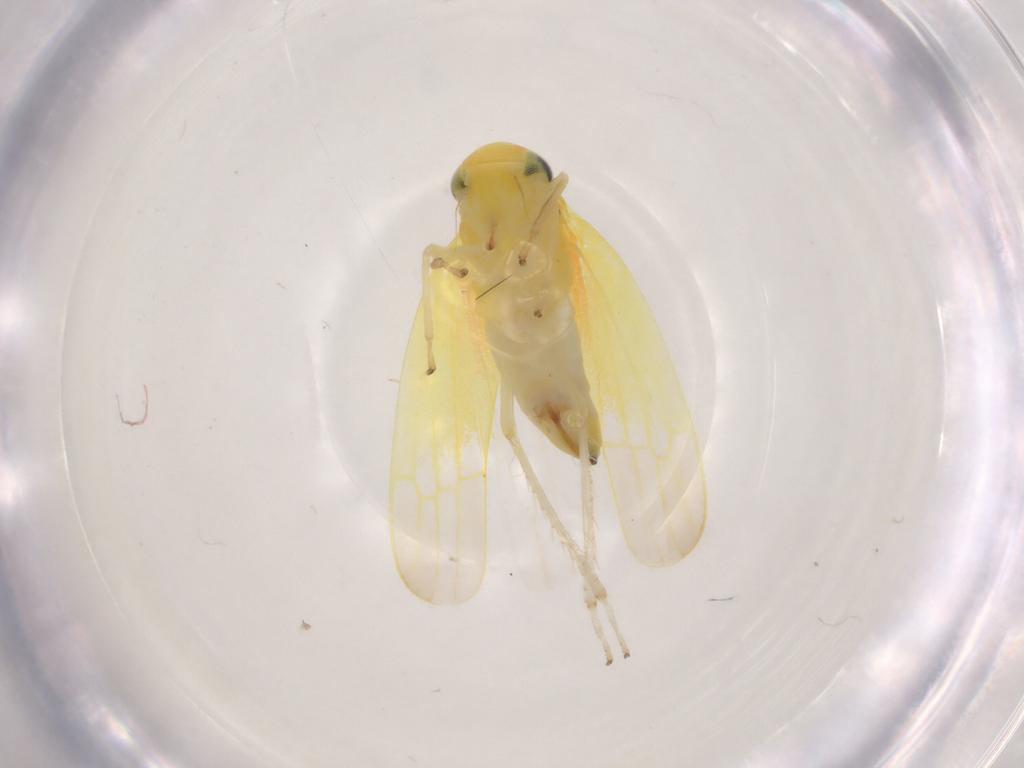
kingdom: Animalia
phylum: Arthropoda
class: Insecta
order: Hemiptera
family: Cicadellidae
